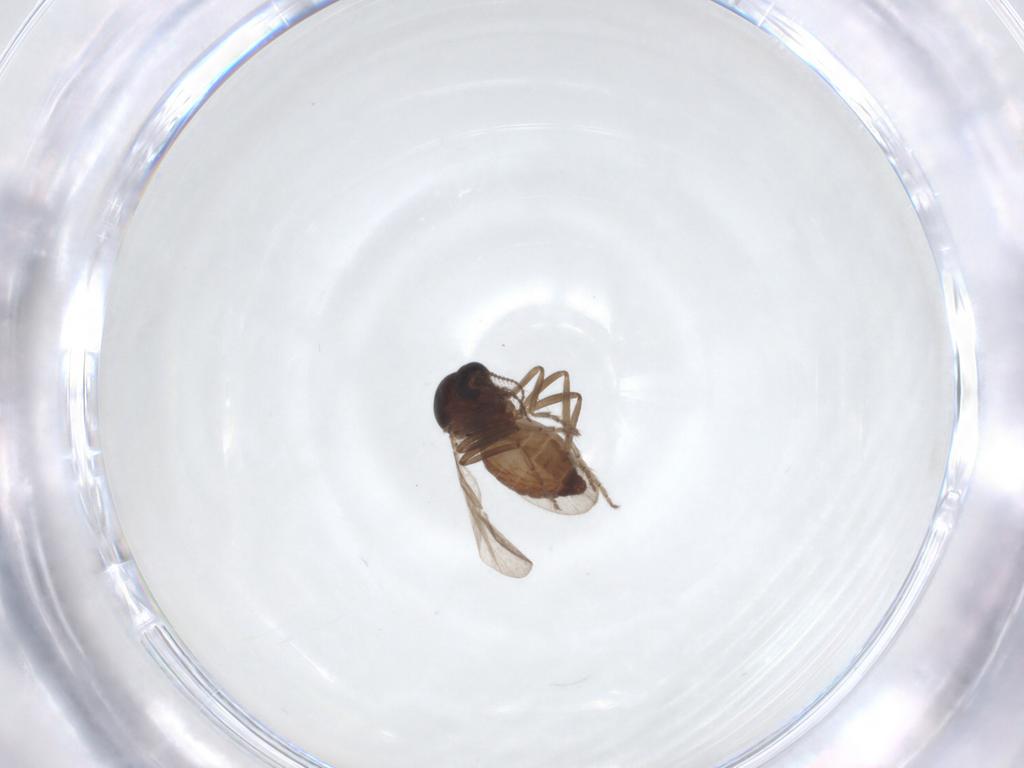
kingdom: Animalia
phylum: Arthropoda
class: Insecta
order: Diptera
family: Ceratopogonidae
